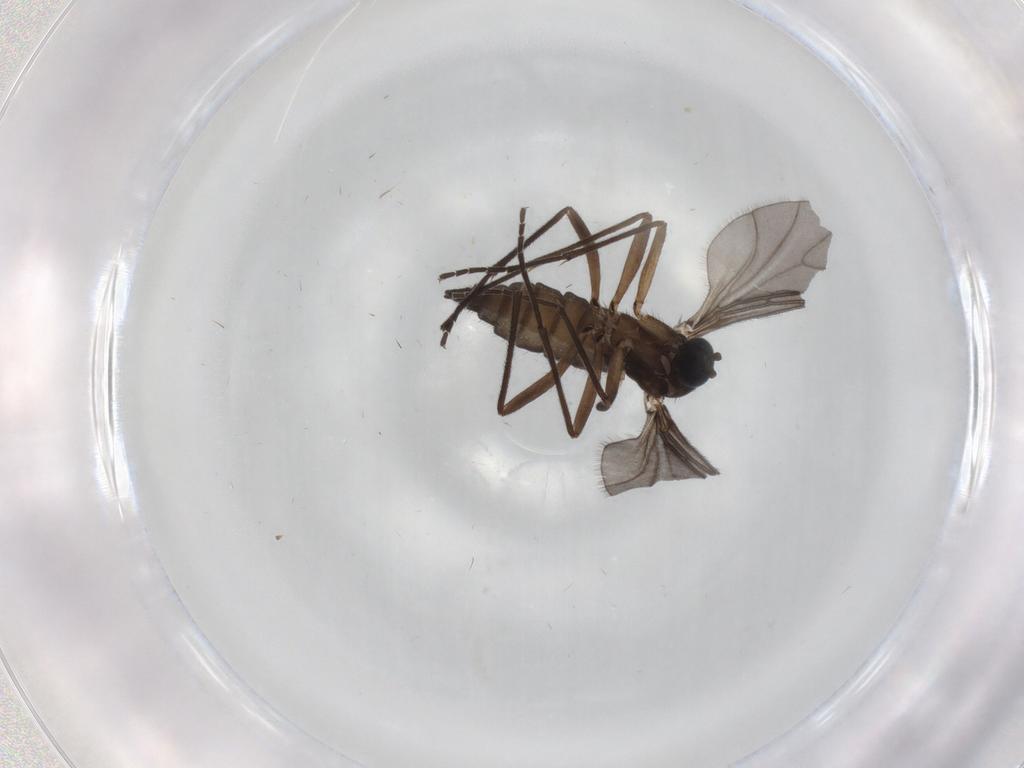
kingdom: Animalia
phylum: Arthropoda
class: Insecta
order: Diptera
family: Sciaridae
